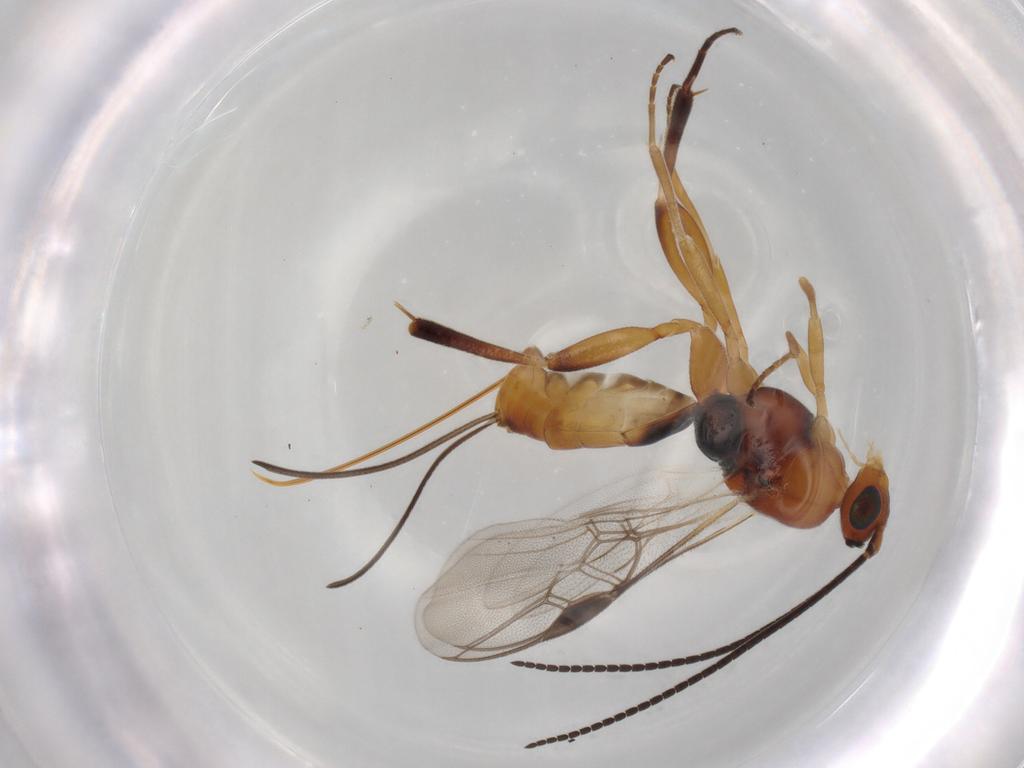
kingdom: Animalia
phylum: Arthropoda
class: Insecta
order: Hymenoptera
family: Braconidae
